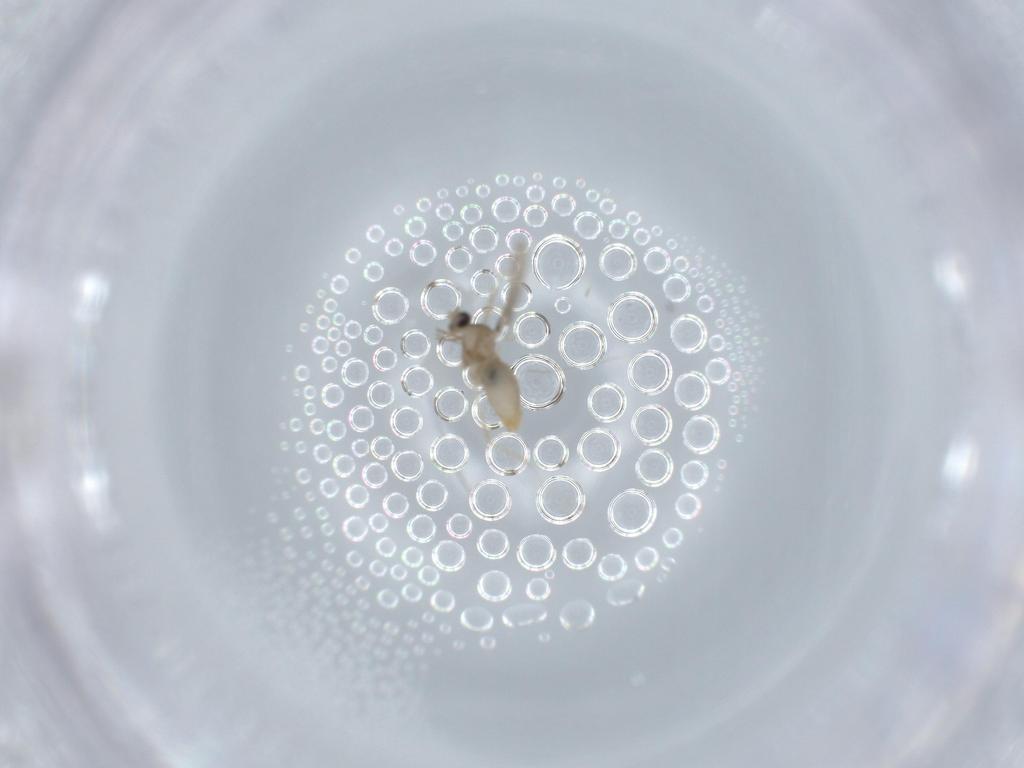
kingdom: Animalia
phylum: Arthropoda
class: Insecta
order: Diptera
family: Cecidomyiidae
